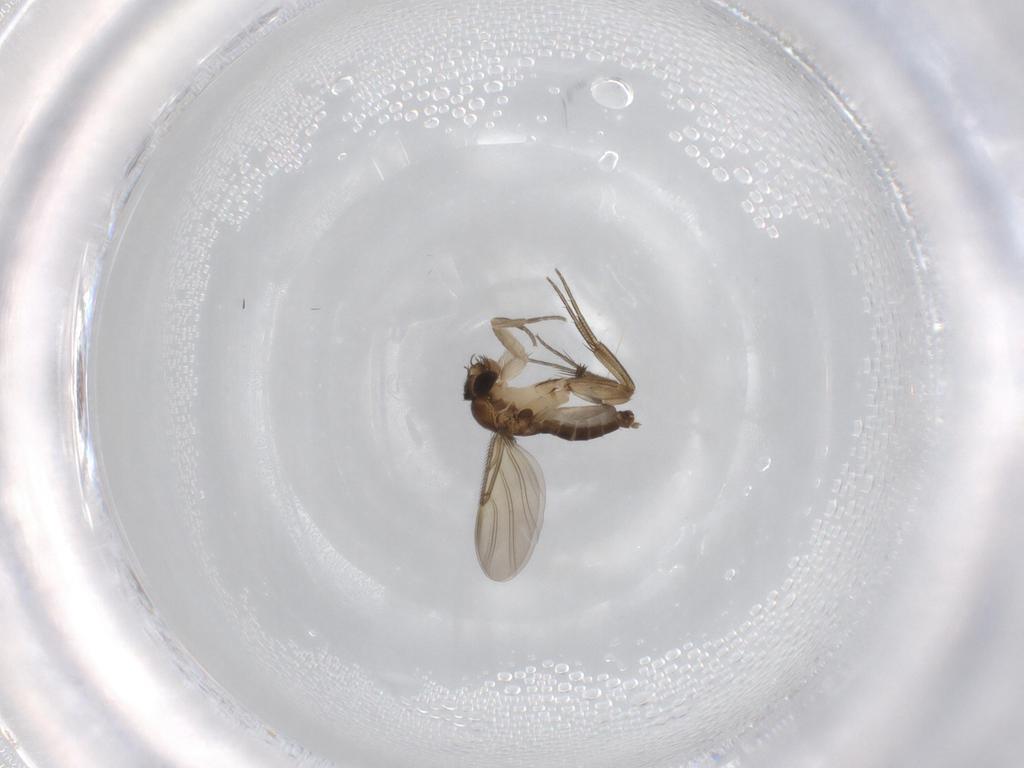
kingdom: Animalia
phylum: Arthropoda
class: Insecta
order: Diptera
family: Phoridae
